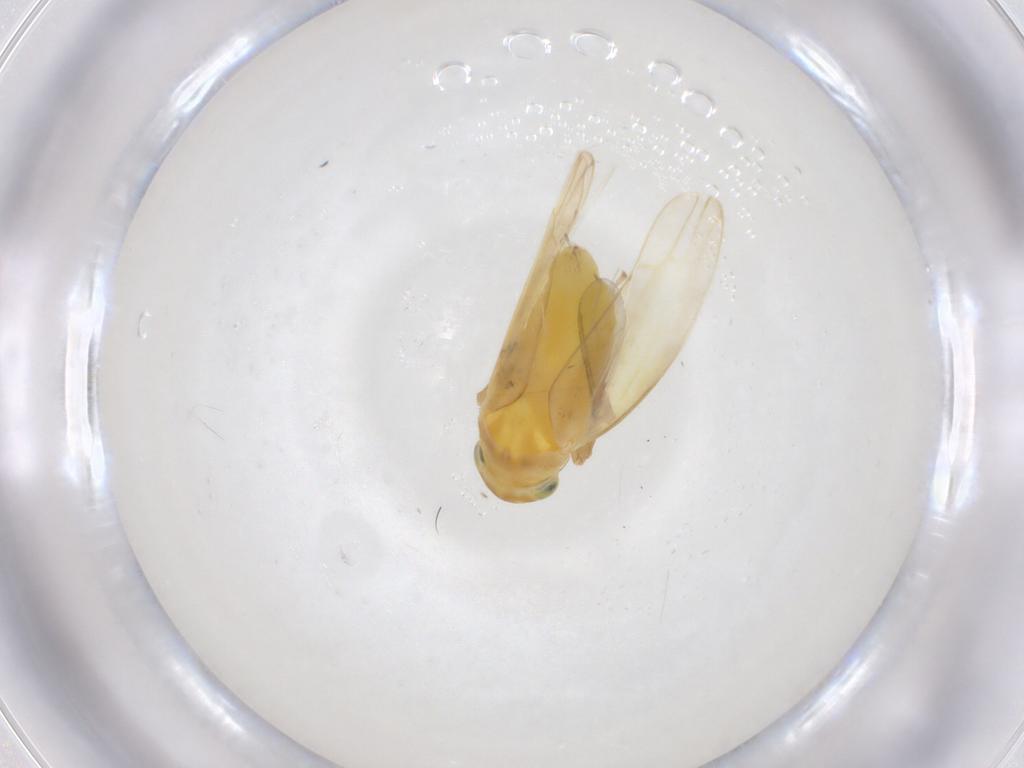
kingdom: Animalia
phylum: Arthropoda
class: Insecta
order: Hemiptera
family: Cicadellidae
